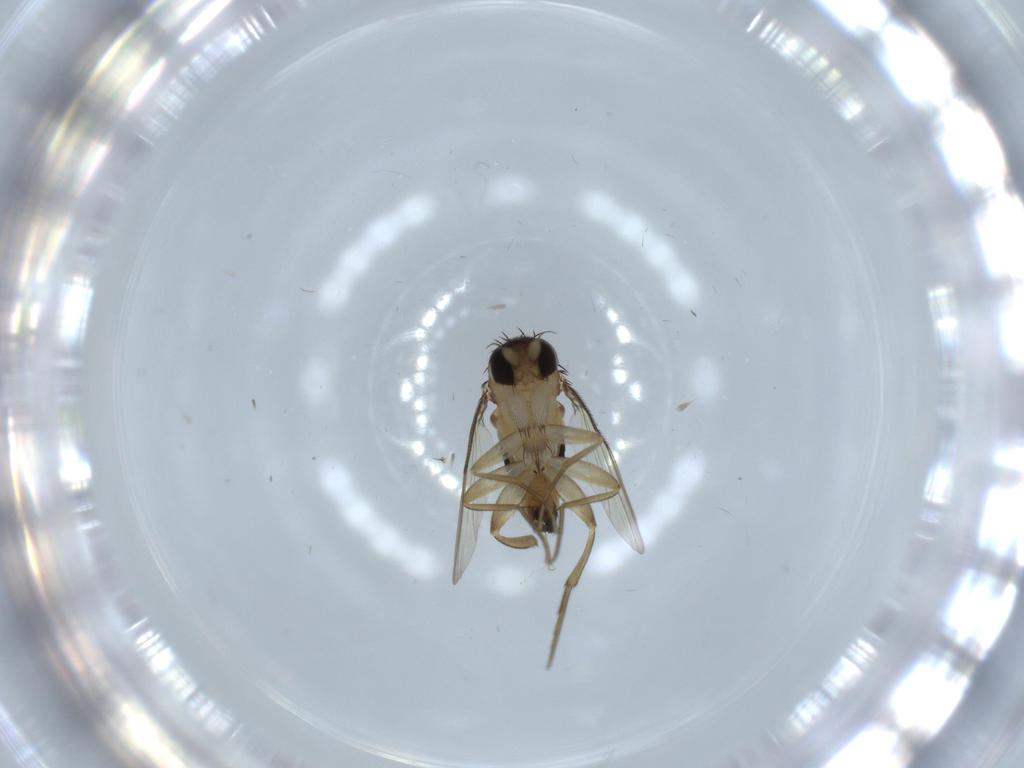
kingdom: Animalia
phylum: Arthropoda
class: Insecta
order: Diptera
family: Phoridae
